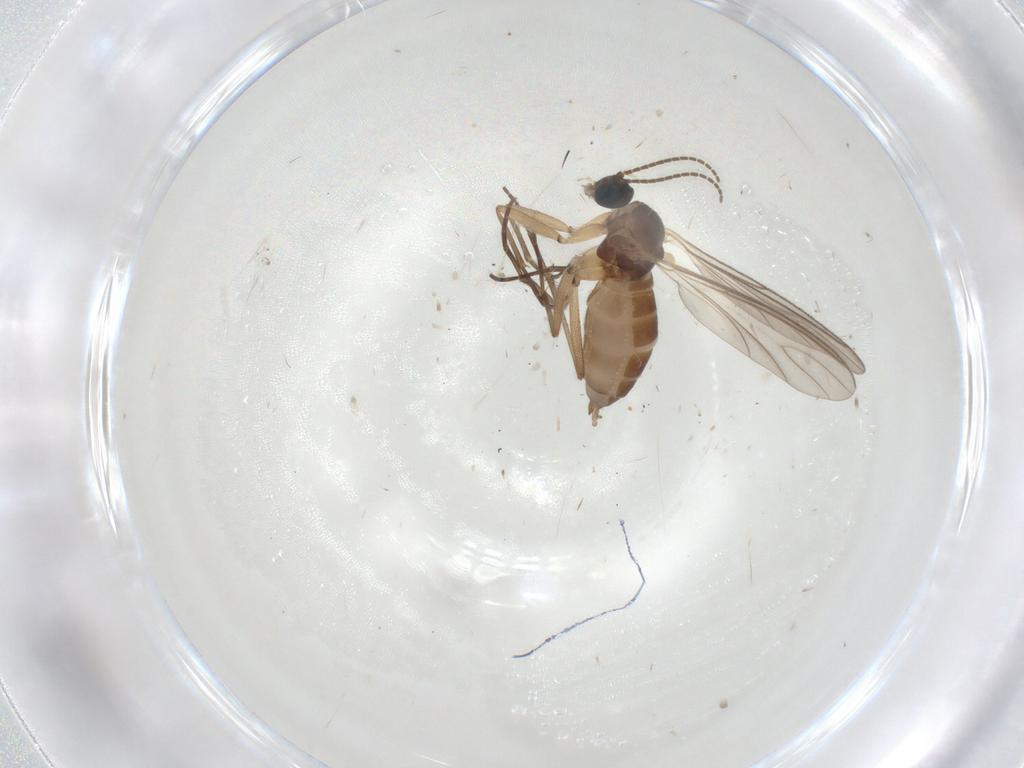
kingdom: Animalia
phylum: Arthropoda
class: Insecta
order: Diptera
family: Sciaridae
